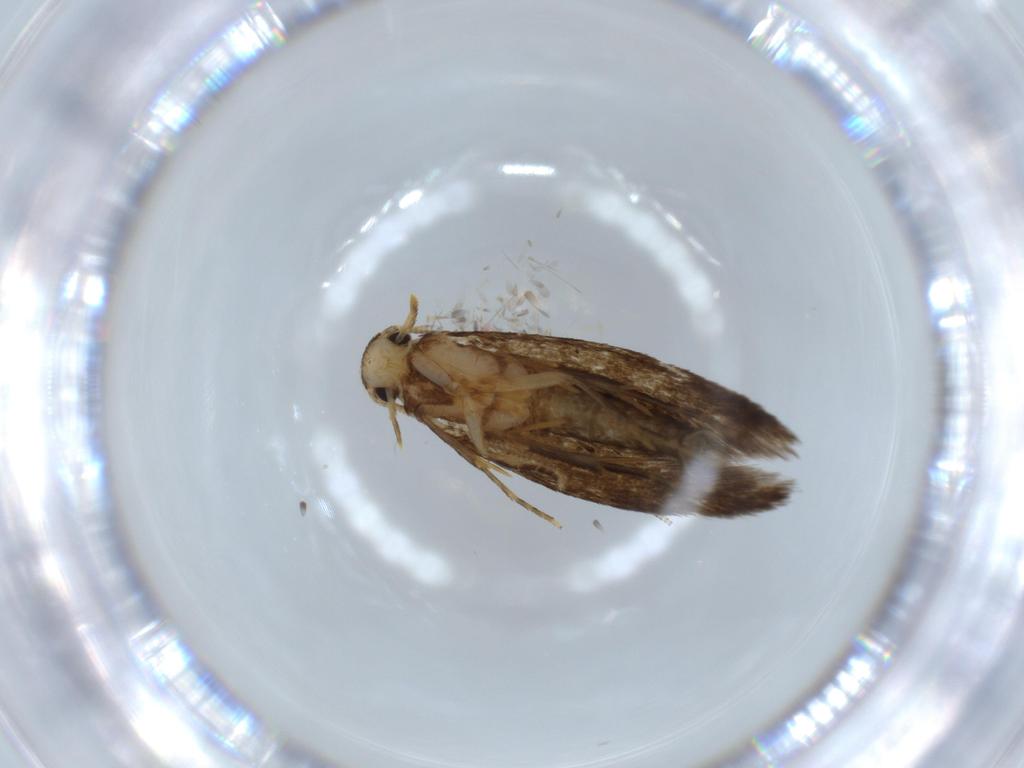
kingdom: Animalia
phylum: Arthropoda
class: Insecta
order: Lepidoptera
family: Tineidae
